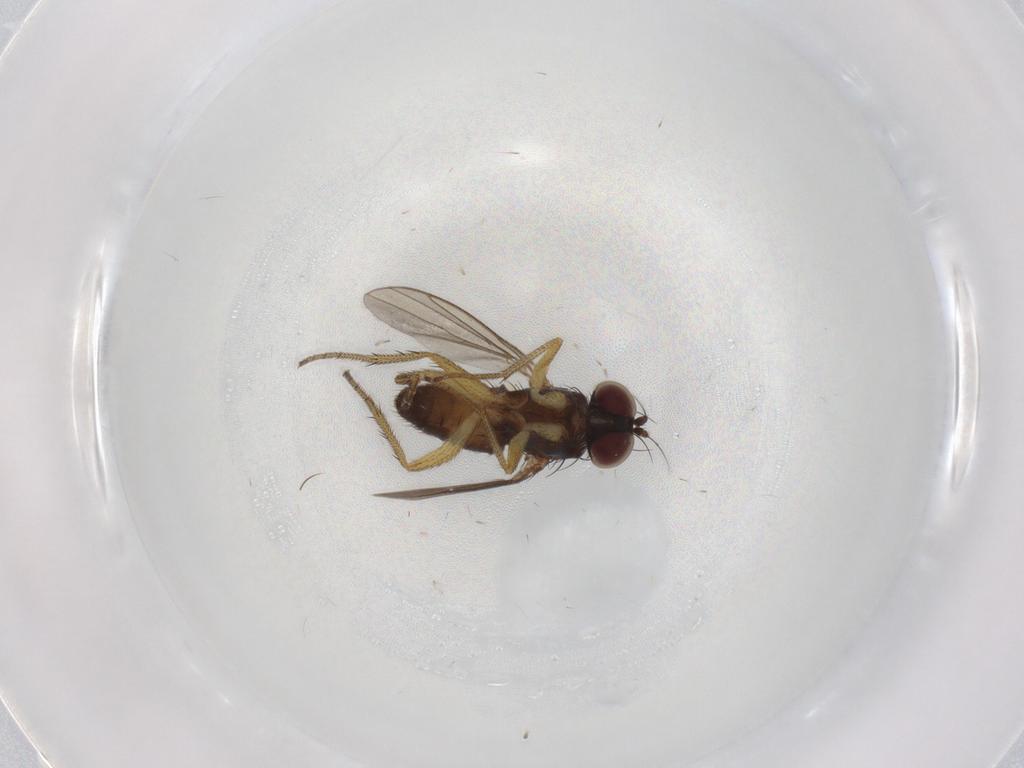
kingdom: Animalia
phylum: Arthropoda
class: Insecta
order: Diptera
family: Dolichopodidae
